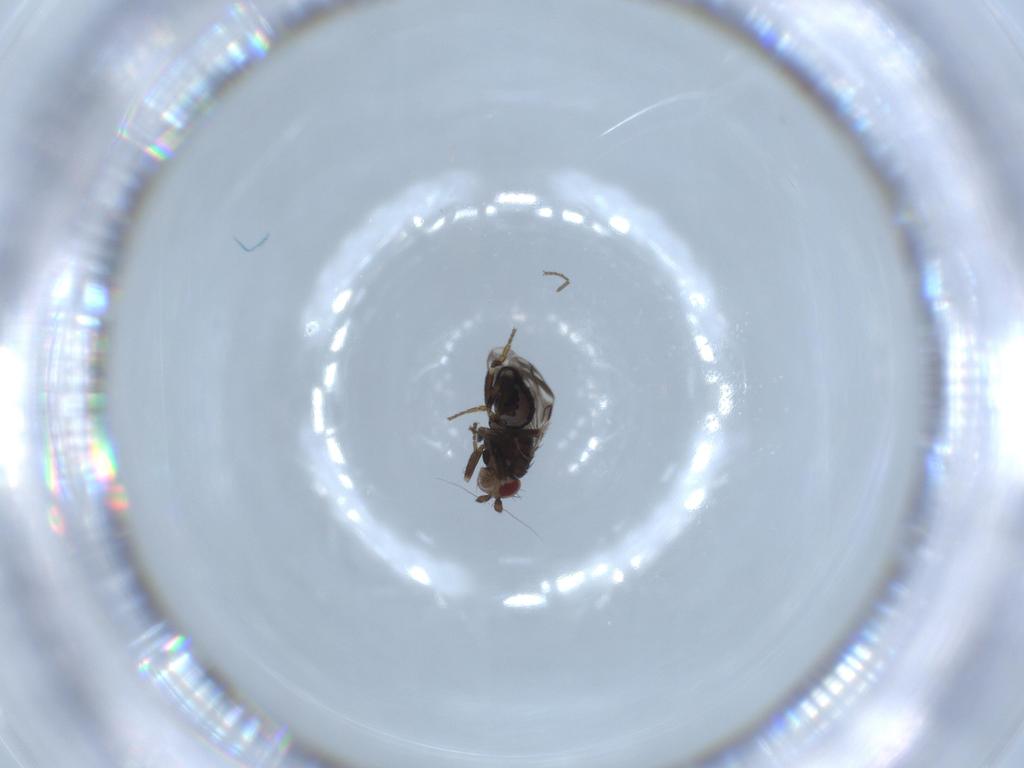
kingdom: Animalia
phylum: Arthropoda
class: Insecta
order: Diptera
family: Sphaeroceridae
